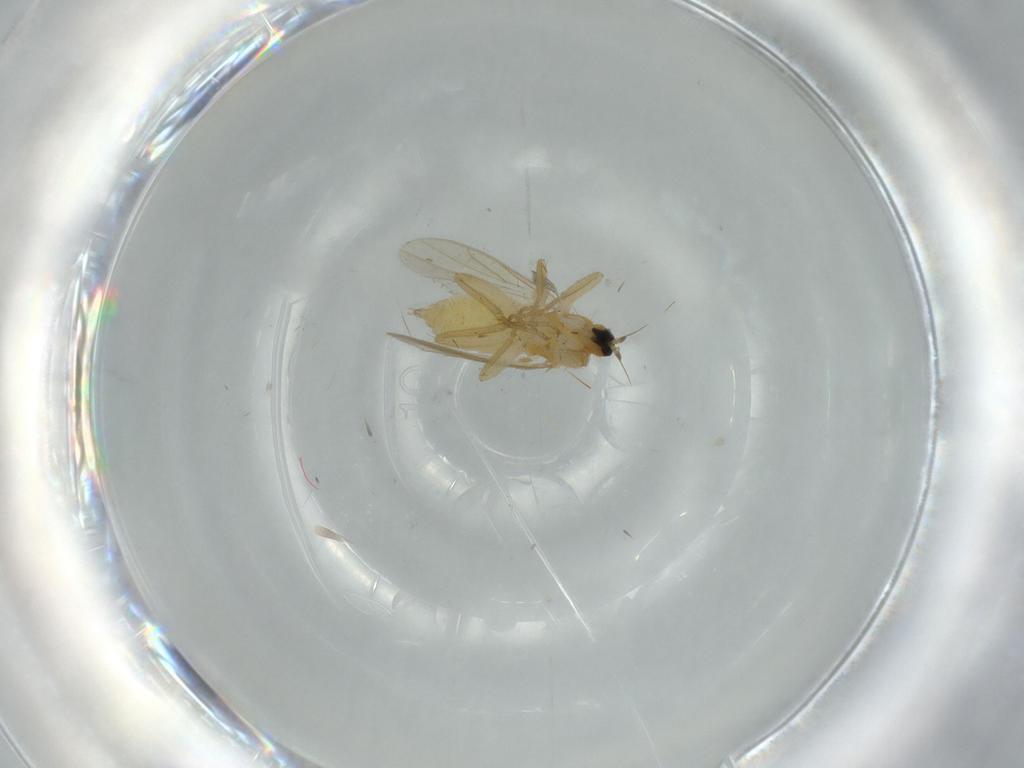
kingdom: Animalia
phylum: Arthropoda
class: Insecta
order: Diptera
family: Hybotidae
